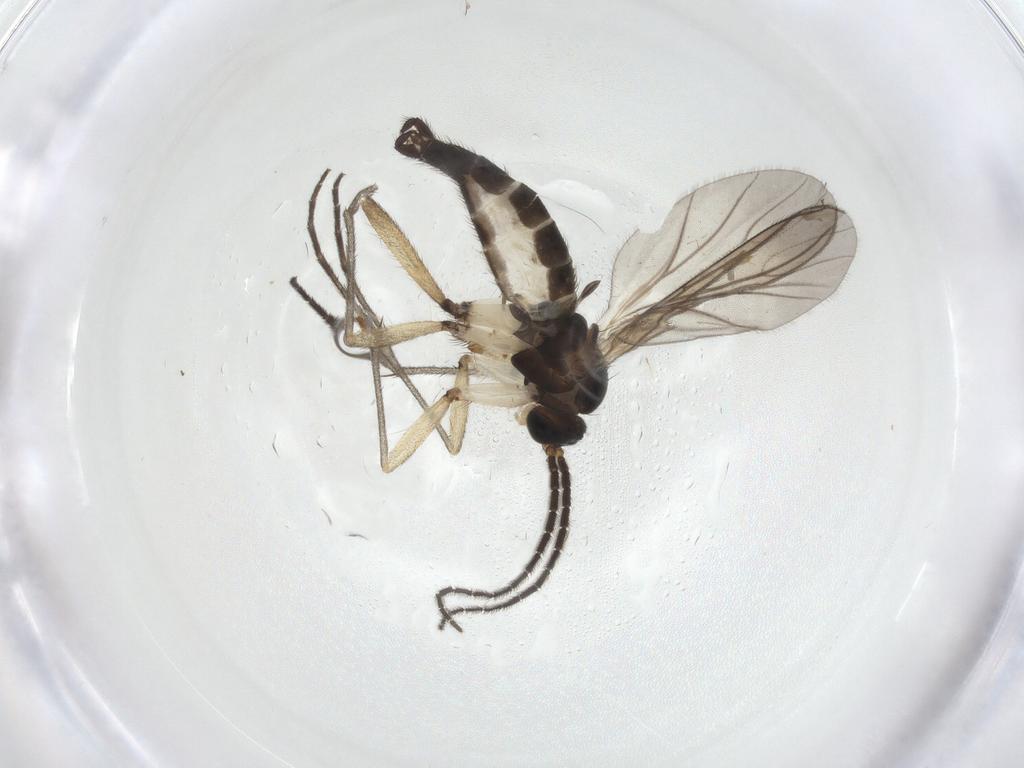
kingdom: Animalia
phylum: Arthropoda
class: Insecta
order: Diptera
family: Sciaridae
